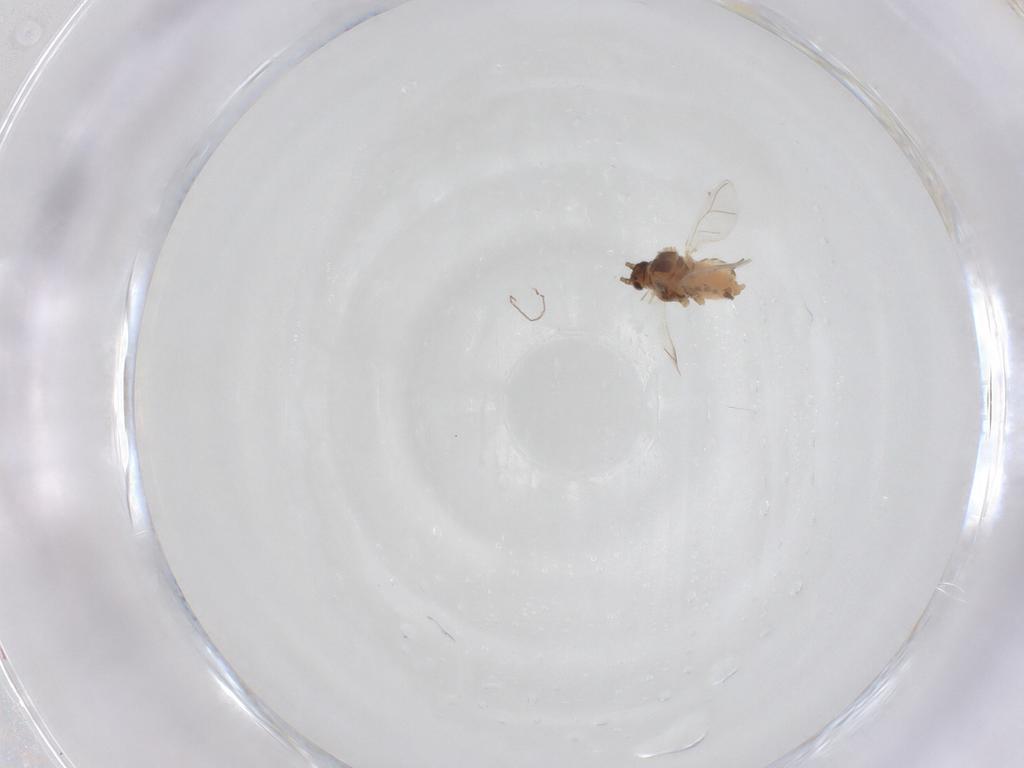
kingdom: Animalia
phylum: Arthropoda
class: Insecta
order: Hemiptera
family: Aphididae
